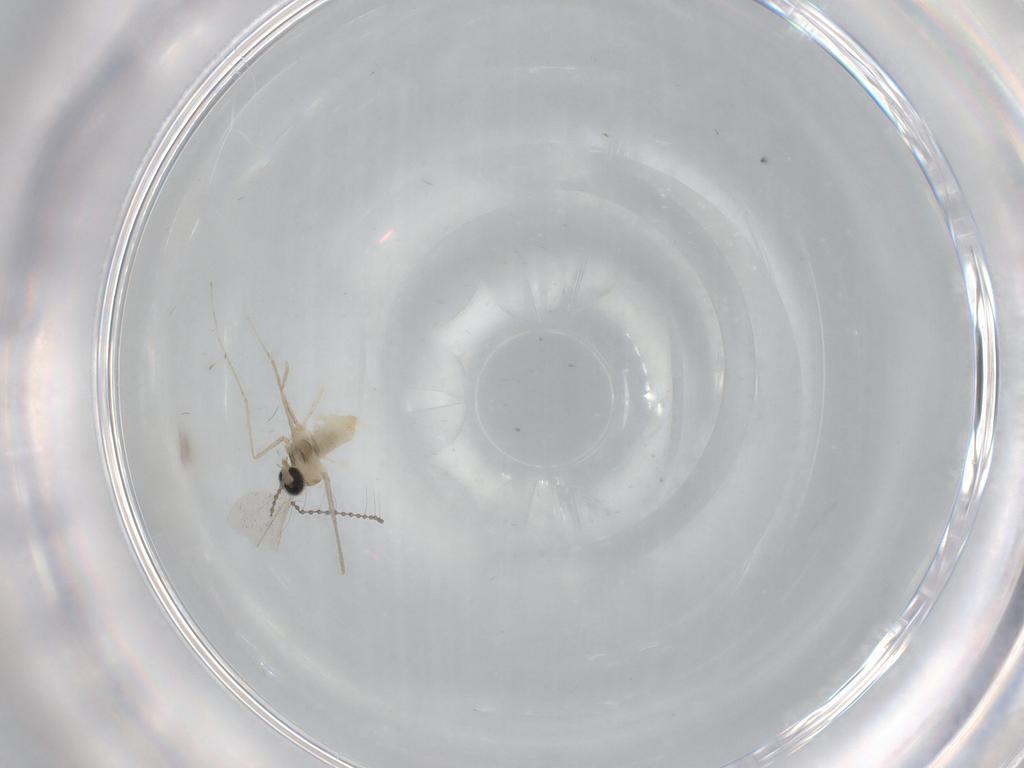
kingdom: Animalia
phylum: Arthropoda
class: Insecta
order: Diptera
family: Cecidomyiidae
